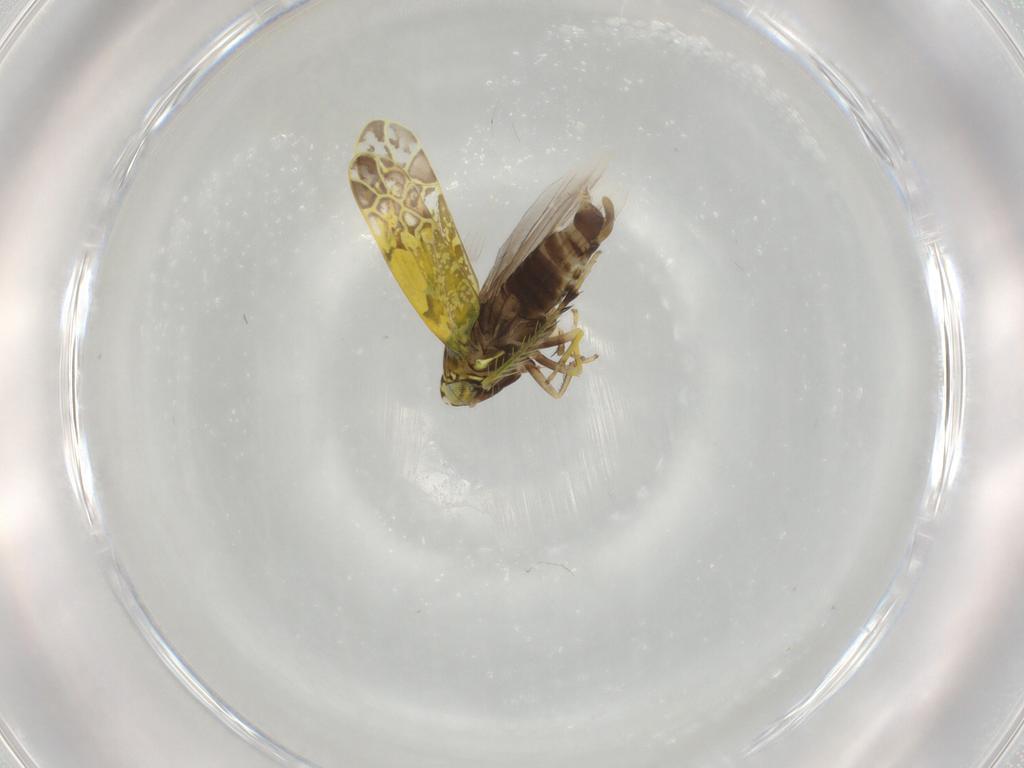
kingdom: Animalia
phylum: Arthropoda
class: Insecta
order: Hemiptera
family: Cicadellidae
